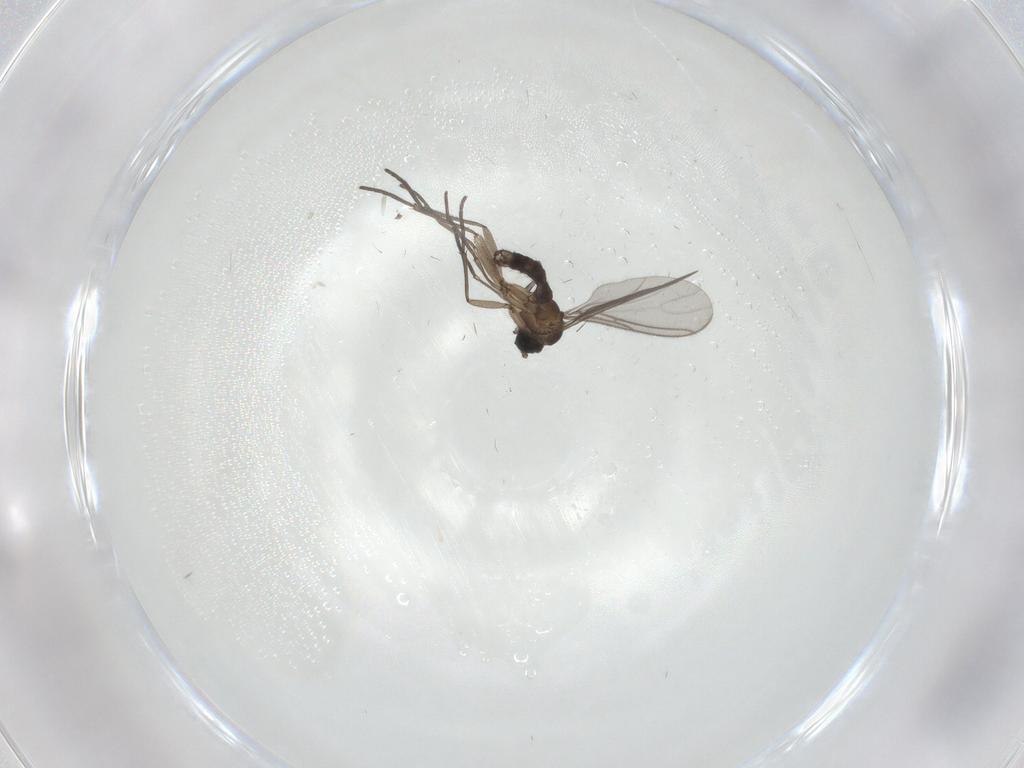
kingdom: Animalia
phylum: Arthropoda
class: Insecta
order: Diptera
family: Sciaridae
